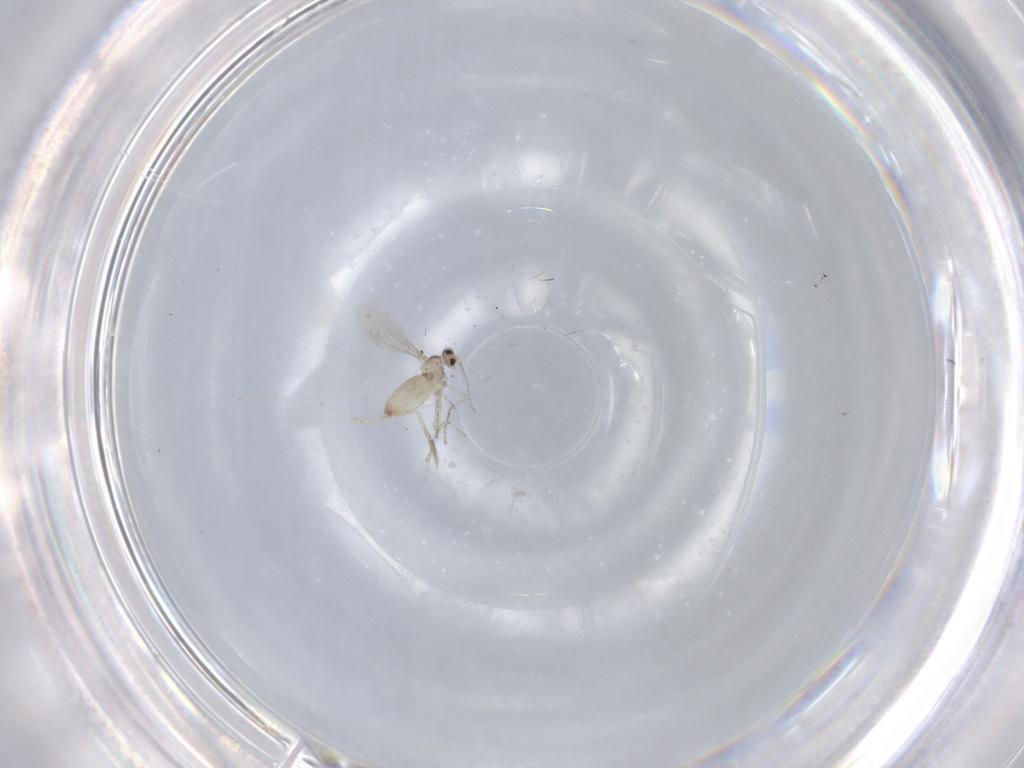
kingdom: Animalia
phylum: Arthropoda
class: Insecta
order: Diptera
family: Cecidomyiidae
